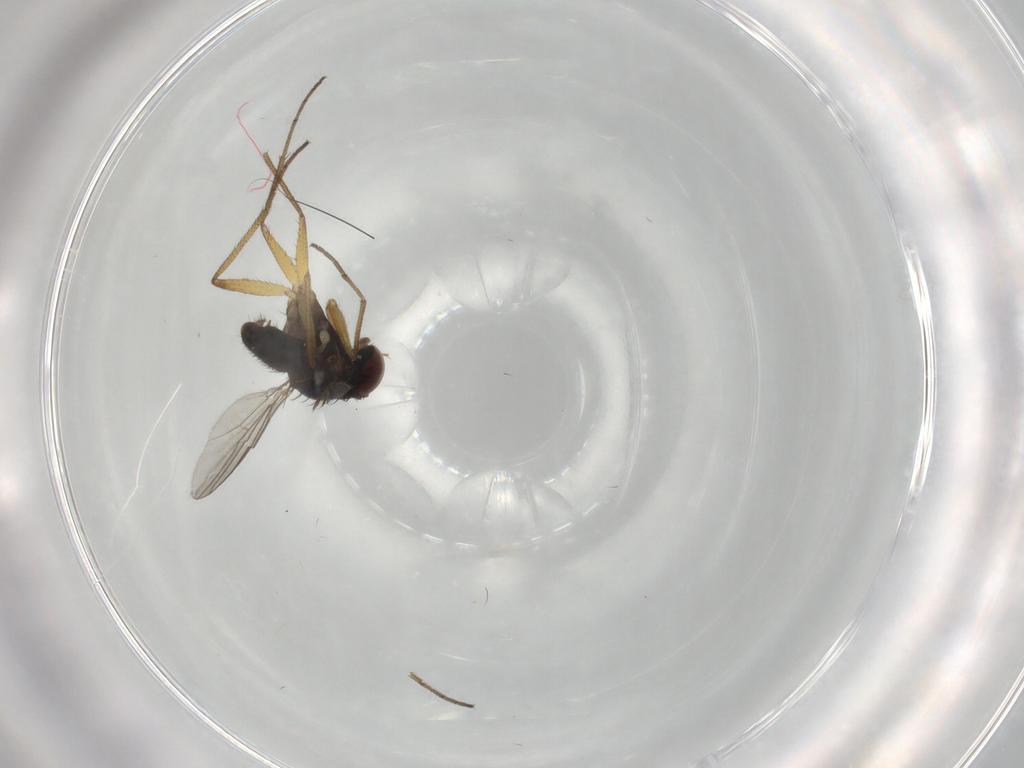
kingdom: Animalia
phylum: Arthropoda
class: Insecta
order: Diptera
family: Dolichopodidae
